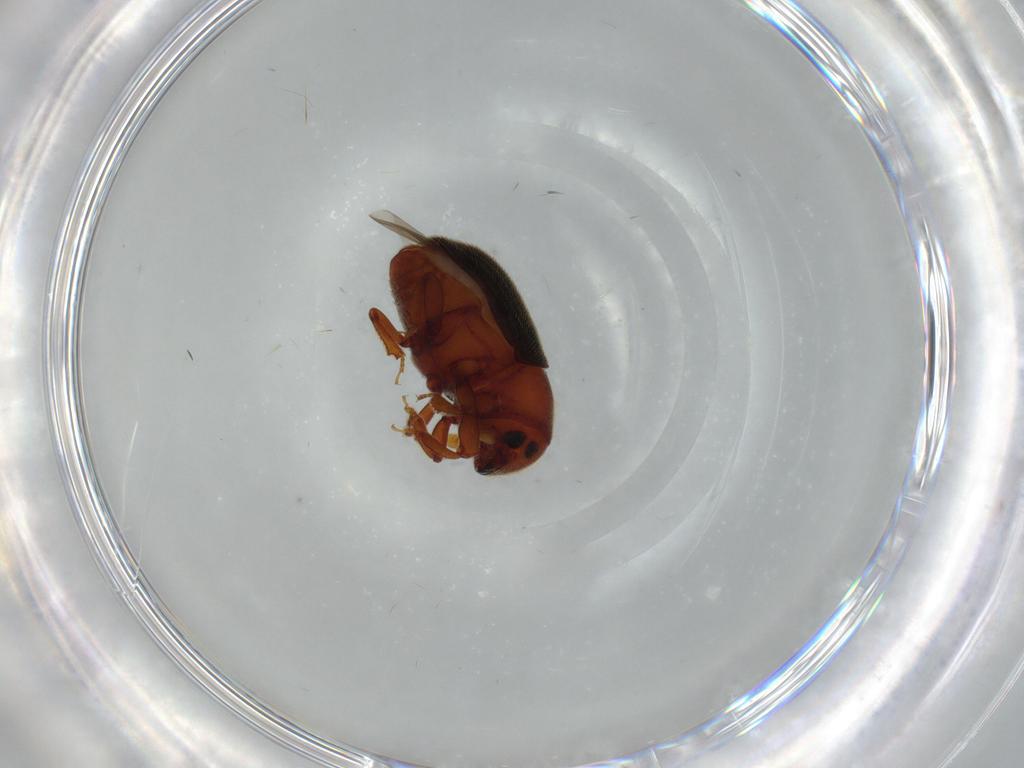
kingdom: Animalia
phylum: Arthropoda
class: Insecta
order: Coleoptera
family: Curculionidae
